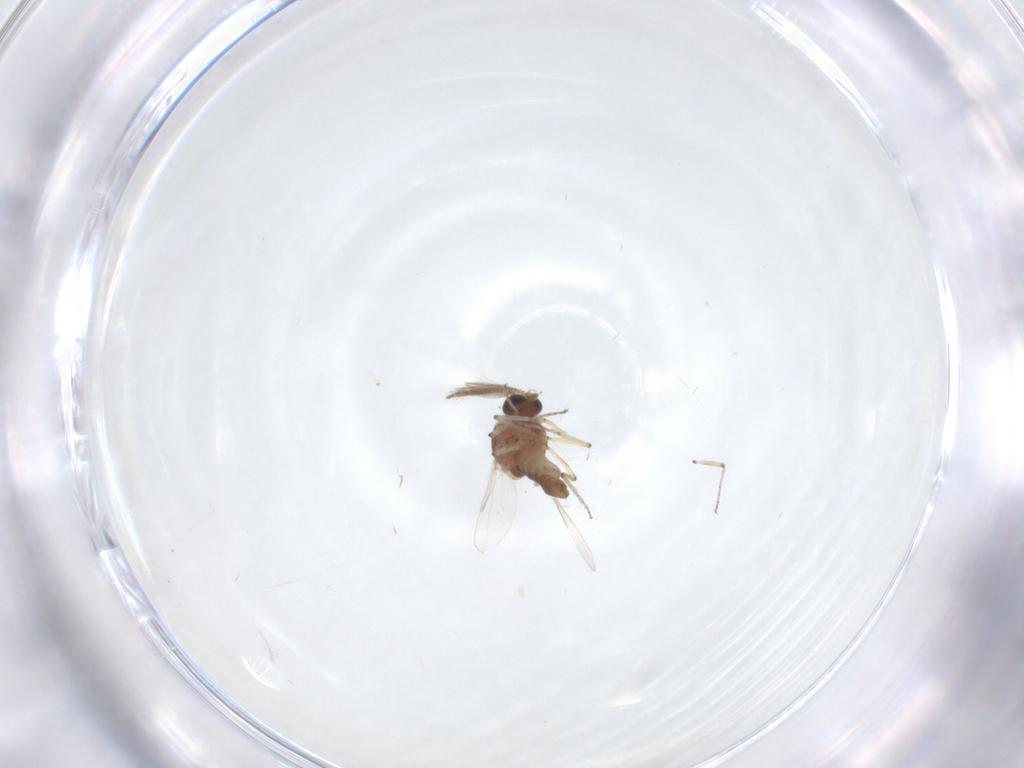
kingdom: Animalia
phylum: Arthropoda
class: Insecta
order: Diptera
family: Ceratopogonidae
